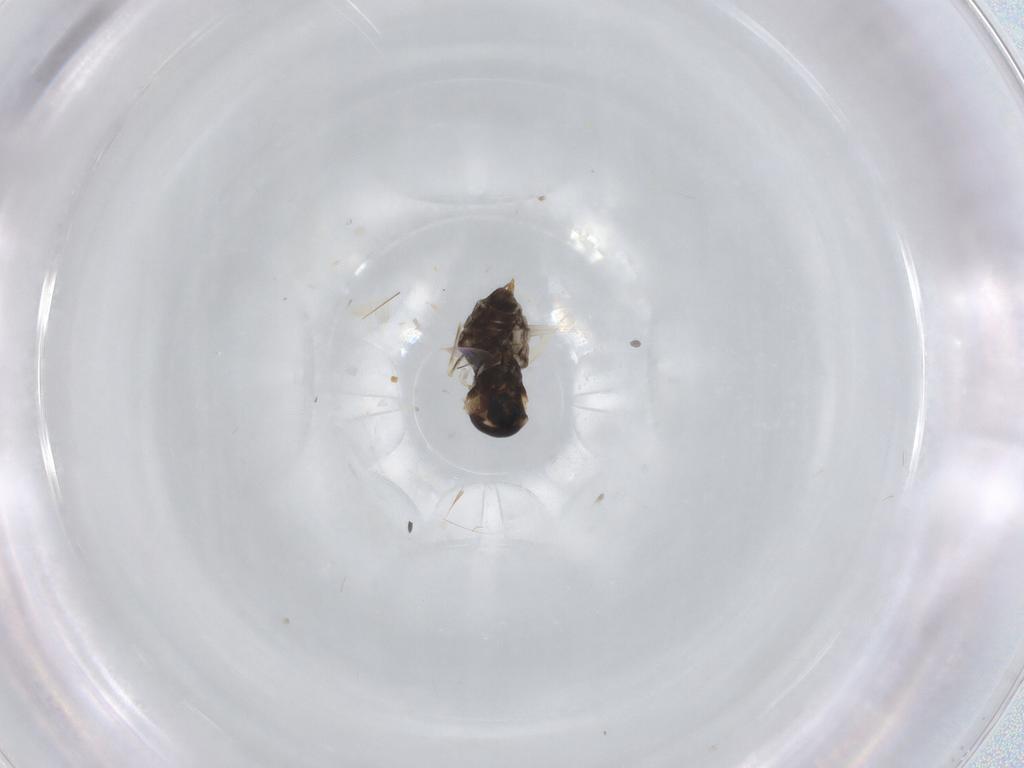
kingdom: Animalia
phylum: Arthropoda
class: Insecta
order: Diptera
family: Cecidomyiidae
